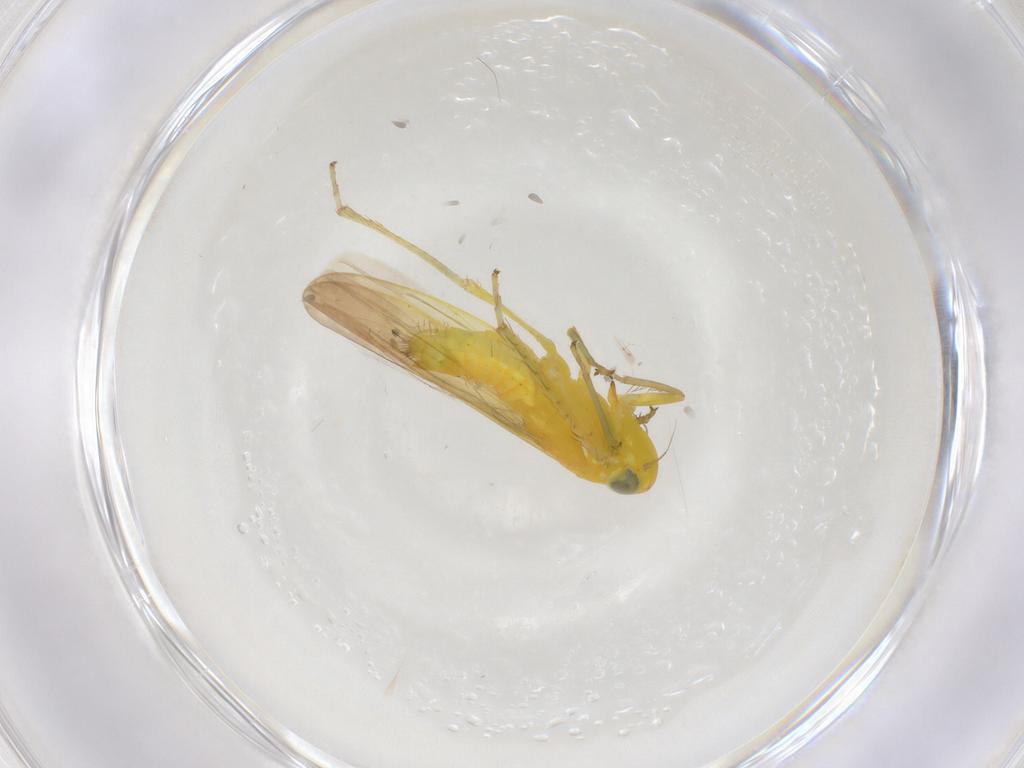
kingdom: Animalia
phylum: Arthropoda
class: Insecta
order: Hemiptera
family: Cicadellidae
